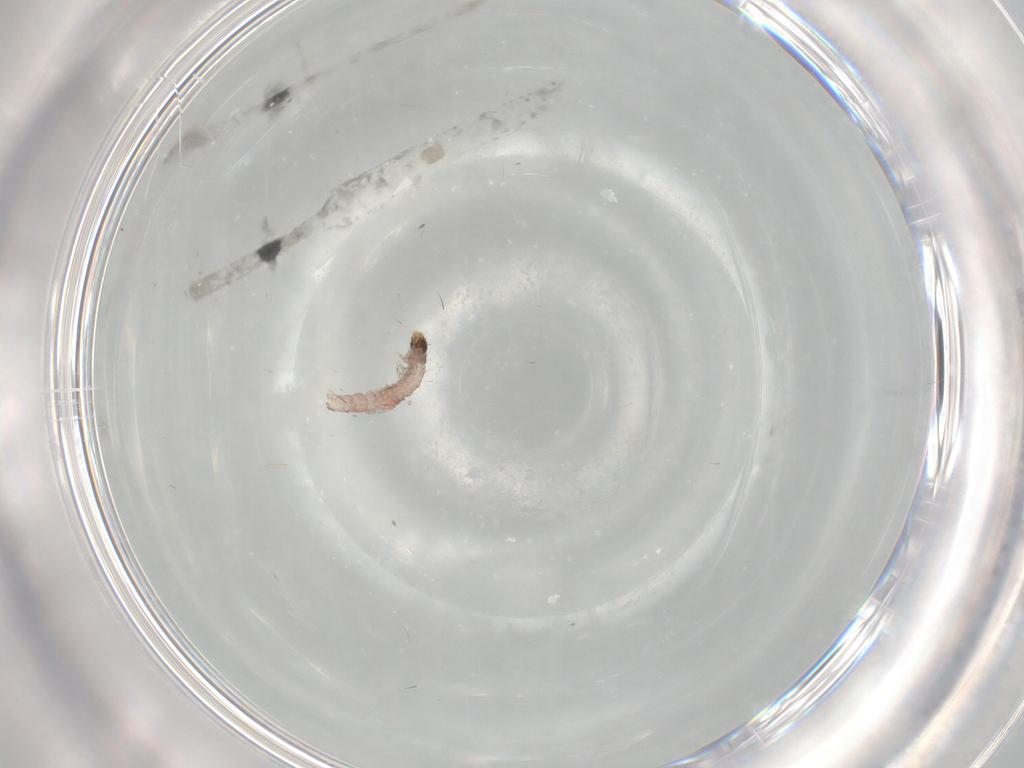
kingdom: Animalia
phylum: Arthropoda
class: Insecta
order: Lepidoptera
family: Gelechiidae
